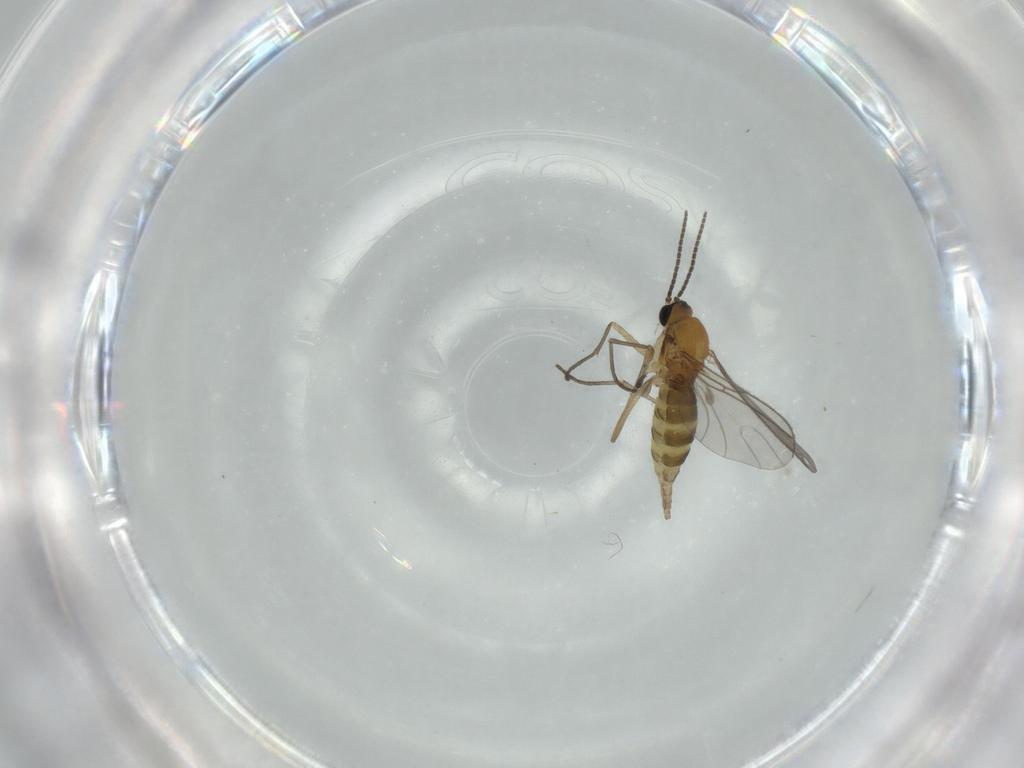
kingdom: Animalia
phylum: Arthropoda
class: Insecta
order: Diptera
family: Sciaridae
